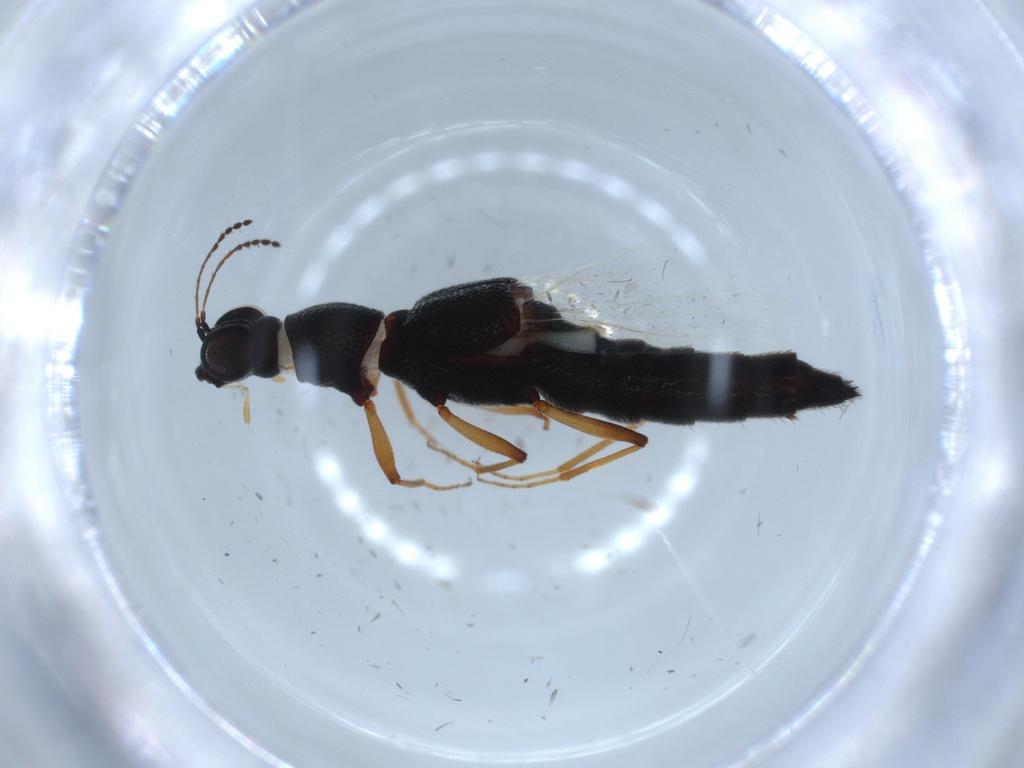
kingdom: Animalia
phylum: Arthropoda
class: Insecta
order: Coleoptera
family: Chrysomelidae
